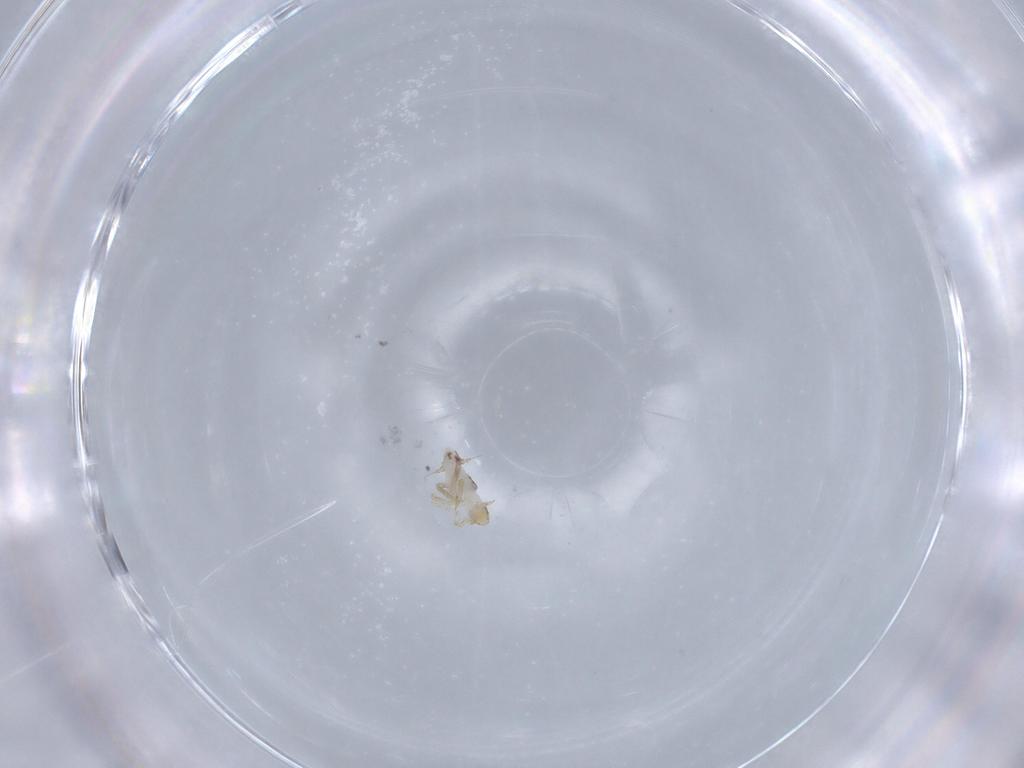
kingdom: Animalia
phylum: Arthropoda
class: Insecta
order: Hemiptera
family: Delphacidae
